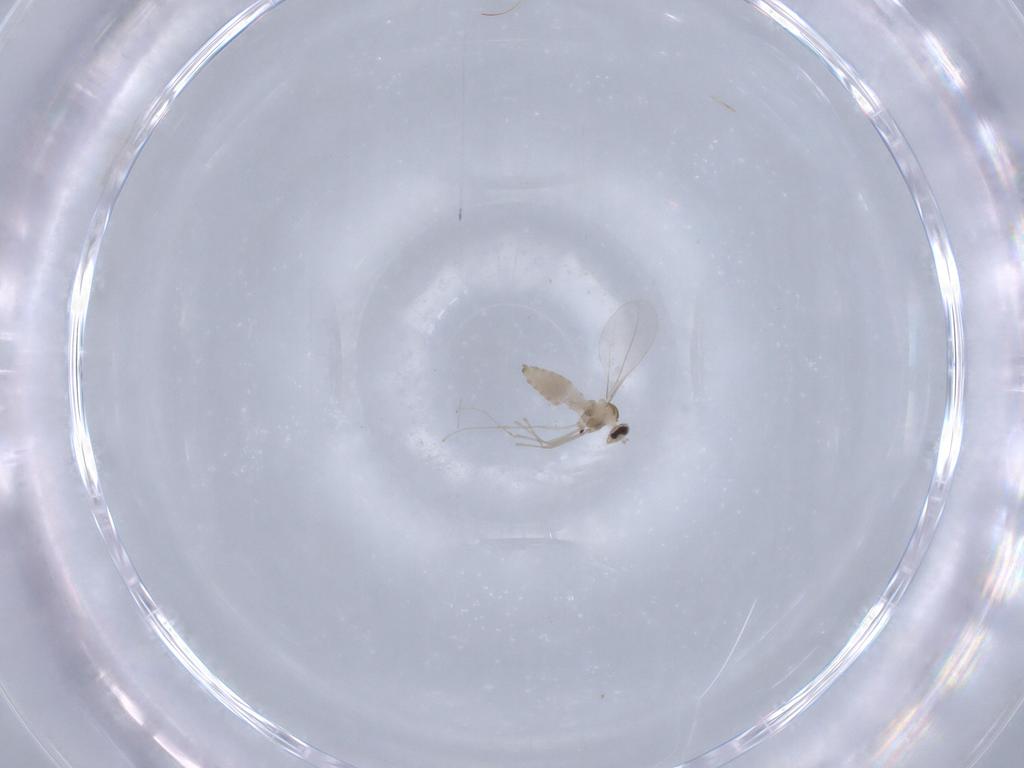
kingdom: Animalia
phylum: Arthropoda
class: Insecta
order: Diptera
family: Cecidomyiidae
